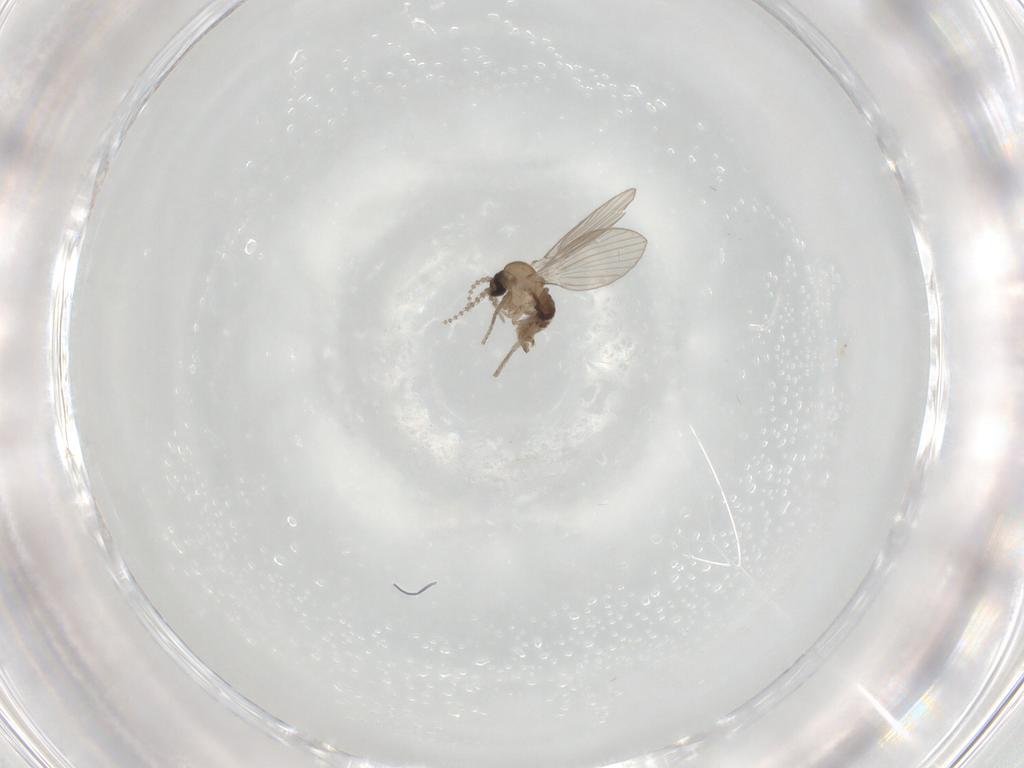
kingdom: Animalia
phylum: Arthropoda
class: Insecta
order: Diptera
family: Psychodidae
